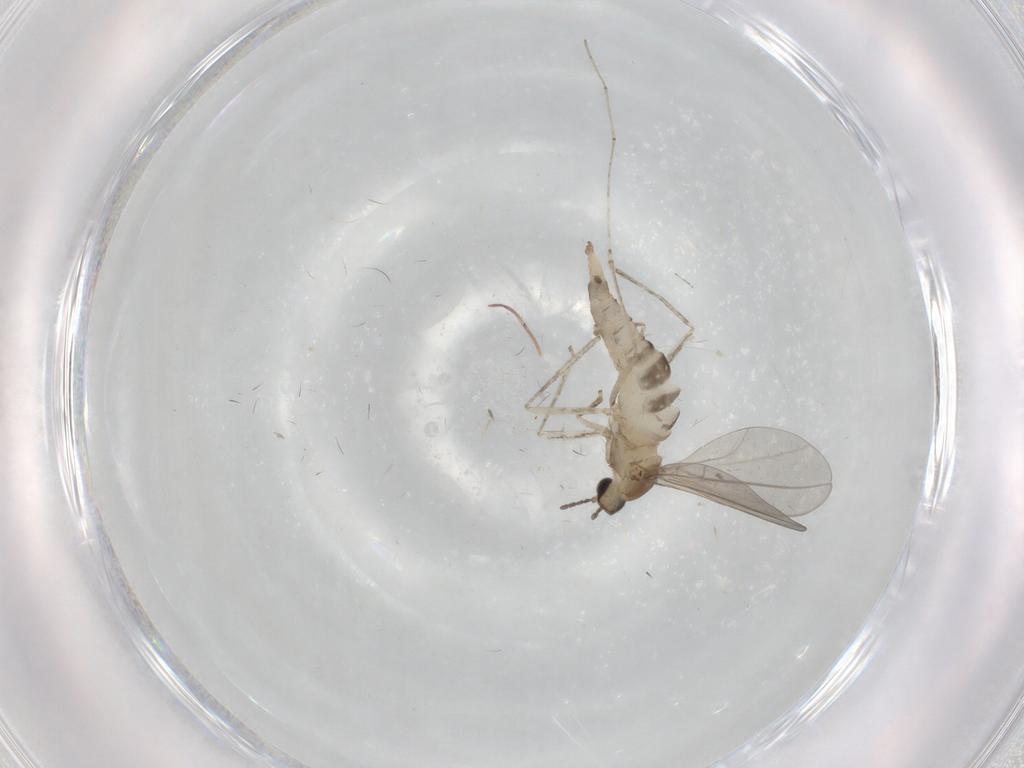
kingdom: Animalia
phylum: Arthropoda
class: Insecta
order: Diptera
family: Cecidomyiidae
